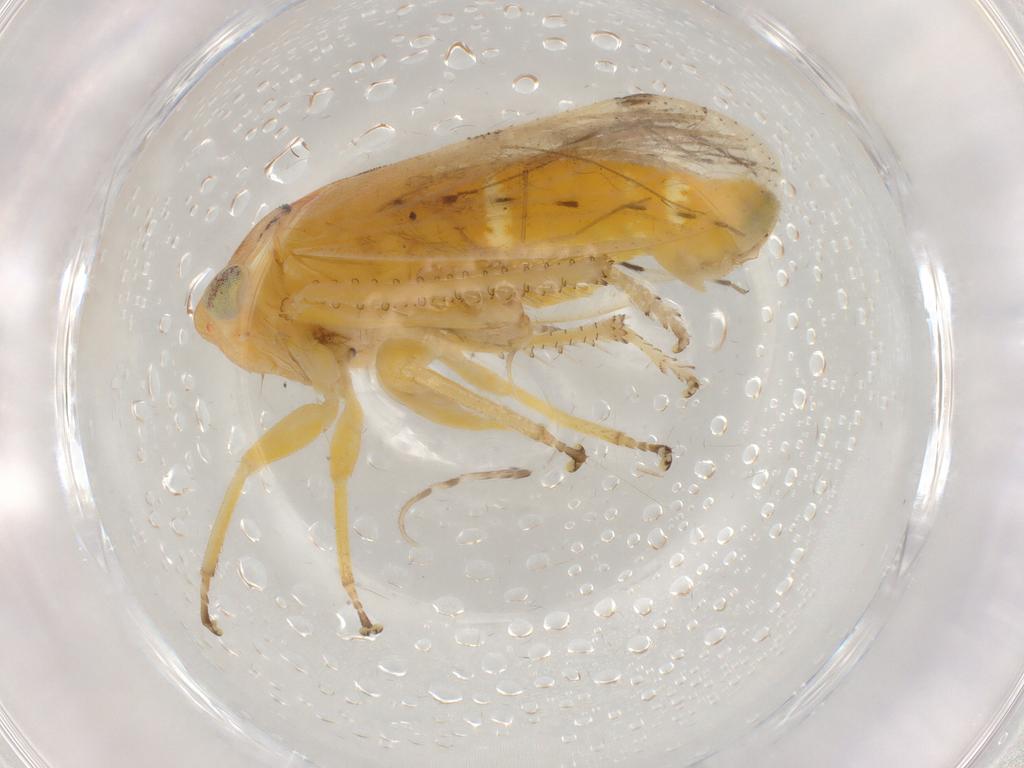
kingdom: Animalia
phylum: Arthropoda
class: Insecta
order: Hemiptera
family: Cicadellidae
